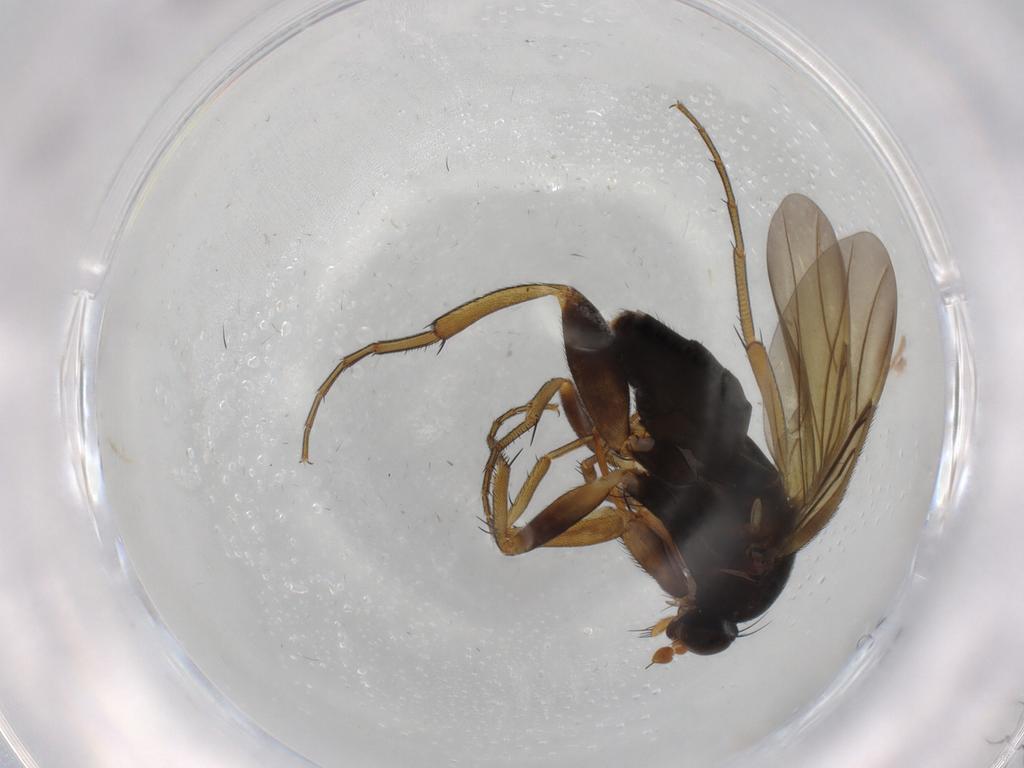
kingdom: Animalia
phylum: Arthropoda
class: Insecta
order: Diptera
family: Phoridae
